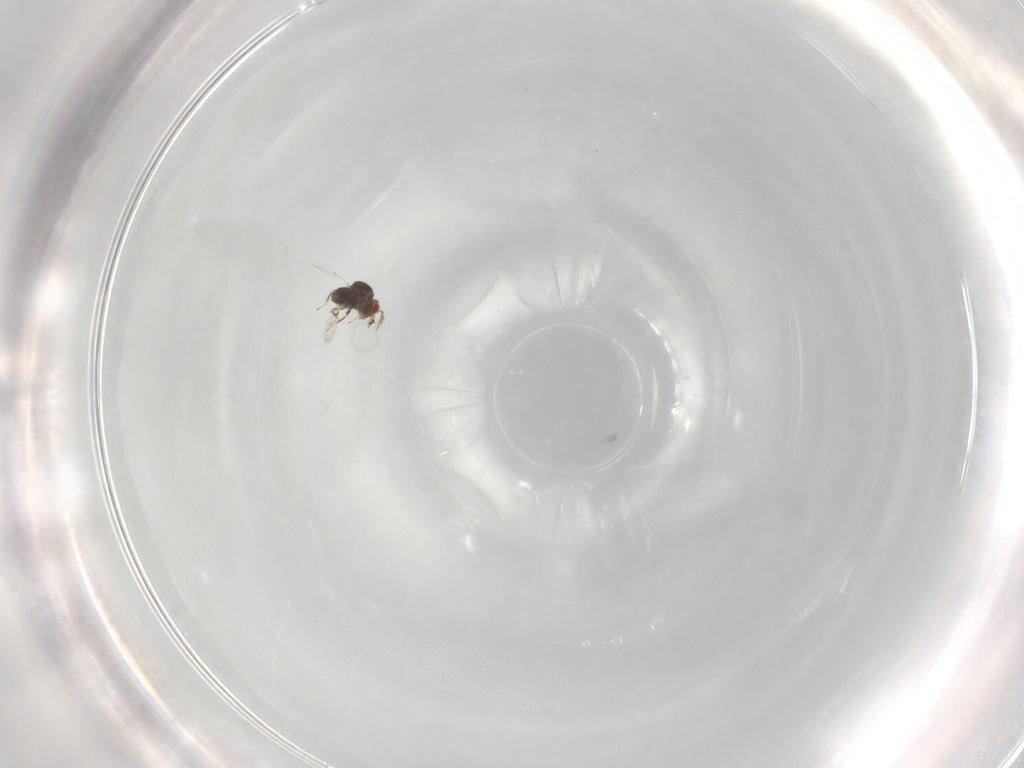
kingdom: Animalia
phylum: Arthropoda
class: Insecta
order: Hymenoptera
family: Trichogrammatidae
